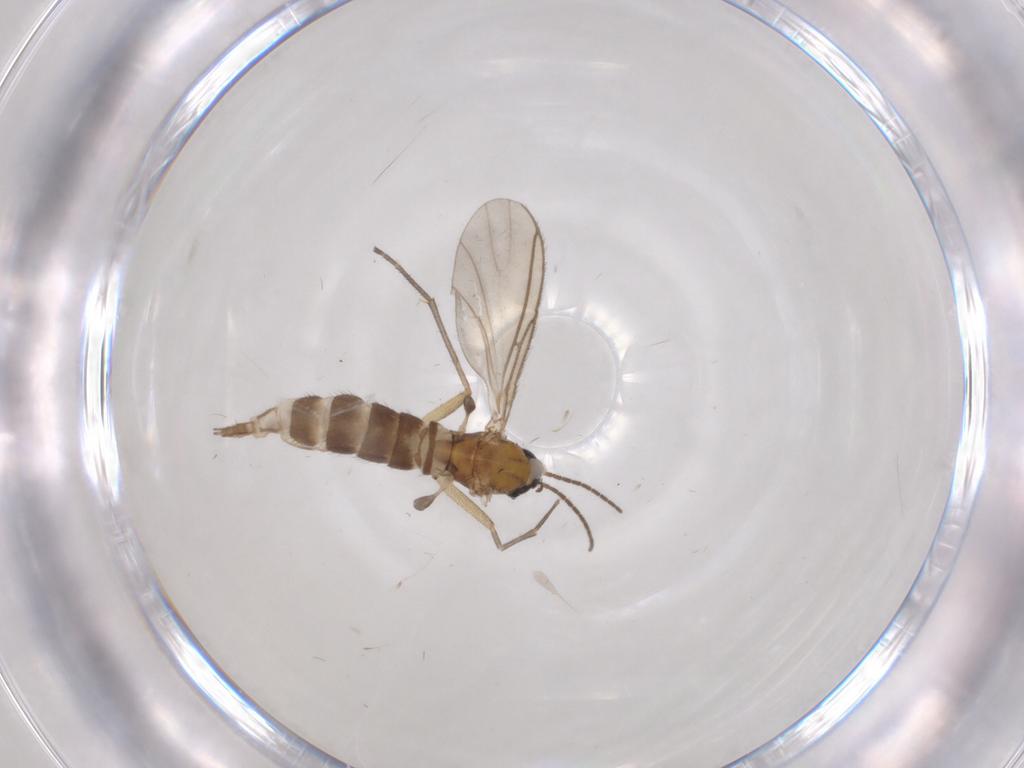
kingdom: Animalia
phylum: Arthropoda
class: Insecta
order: Diptera
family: Sciaridae
